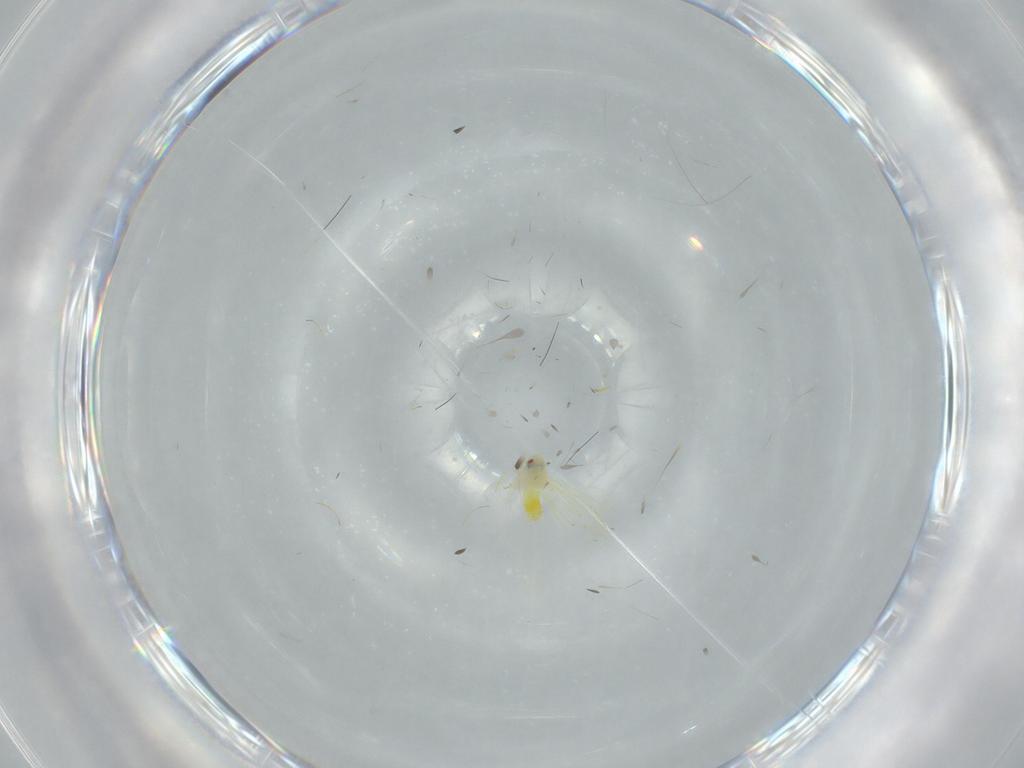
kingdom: Animalia
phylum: Arthropoda
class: Insecta
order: Hemiptera
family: Aleyrodidae
